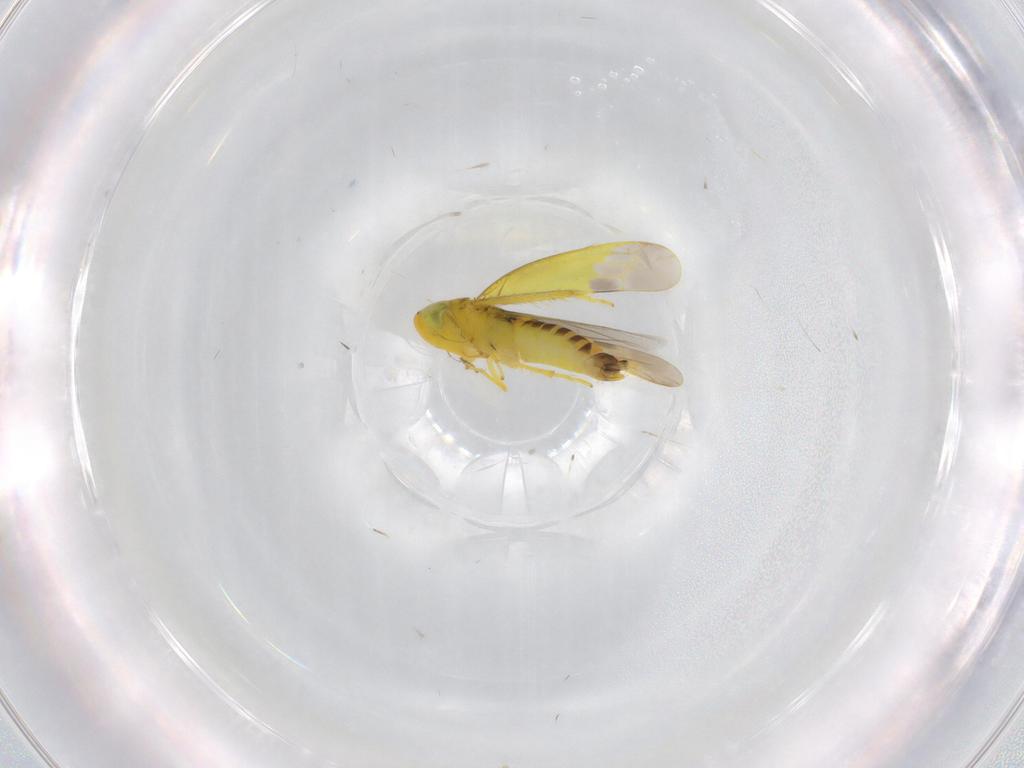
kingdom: Animalia
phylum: Arthropoda
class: Insecta
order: Hemiptera
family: Cicadellidae
